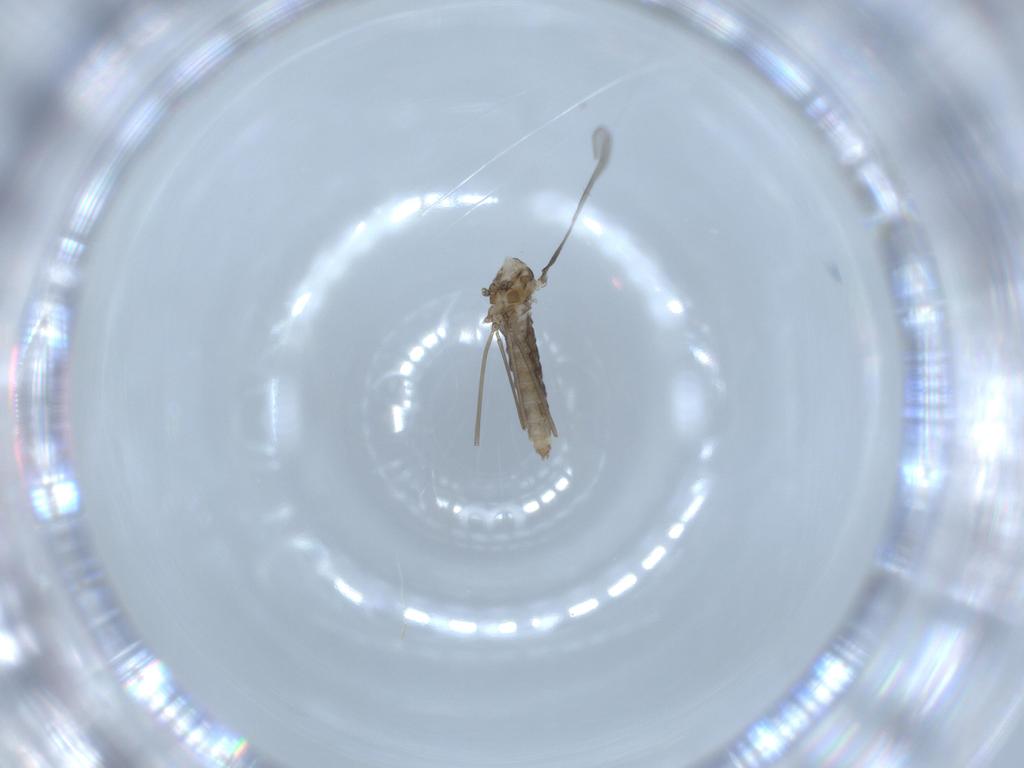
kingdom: Animalia
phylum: Arthropoda
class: Insecta
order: Diptera
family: Cecidomyiidae
